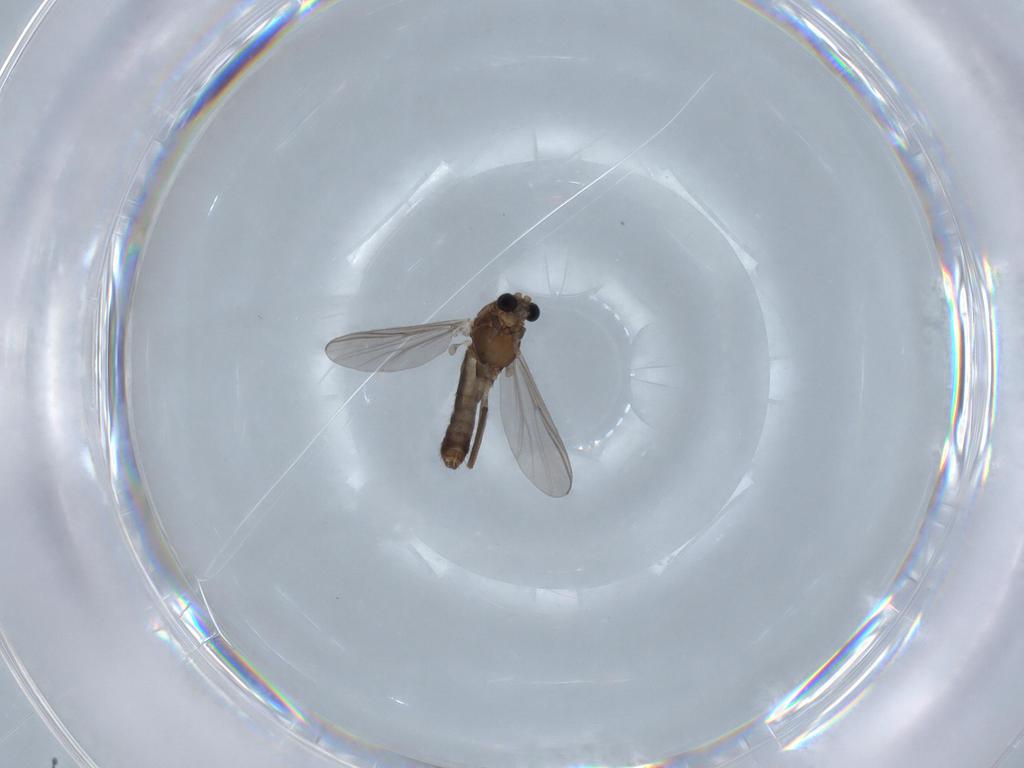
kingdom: Animalia
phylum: Arthropoda
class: Insecta
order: Diptera
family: Chironomidae
